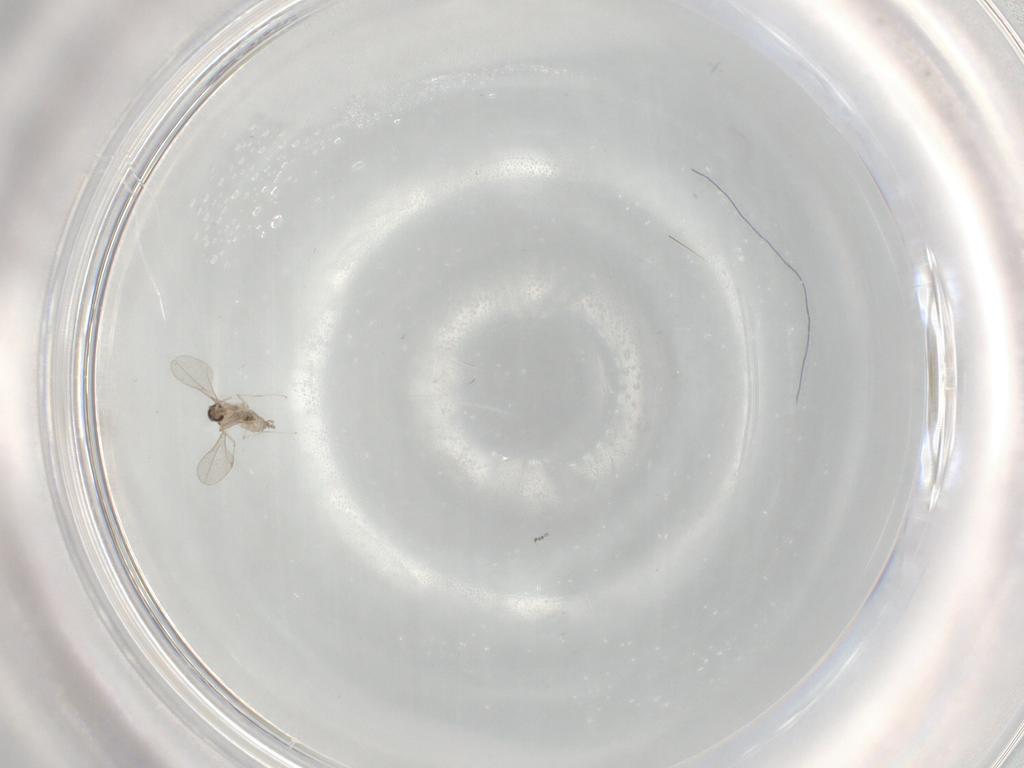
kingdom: Animalia
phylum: Arthropoda
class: Insecta
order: Diptera
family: Cecidomyiidae
